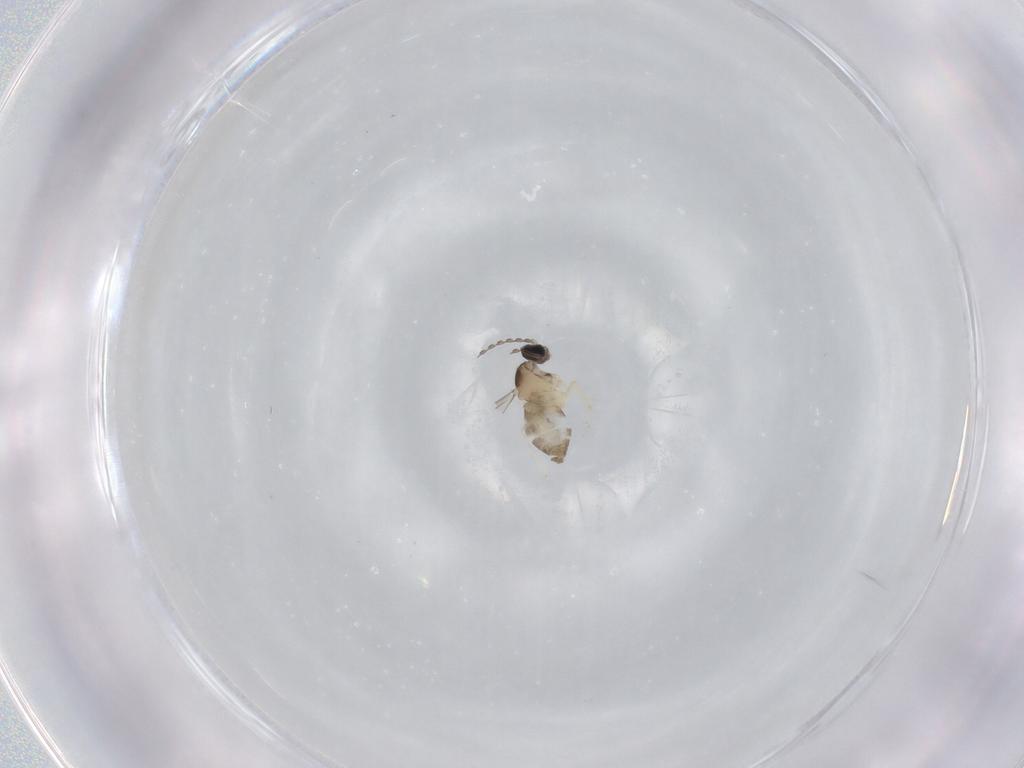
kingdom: Animalia
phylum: Arthropoda
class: Insecta
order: Diptera
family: Cecidomyiidae
